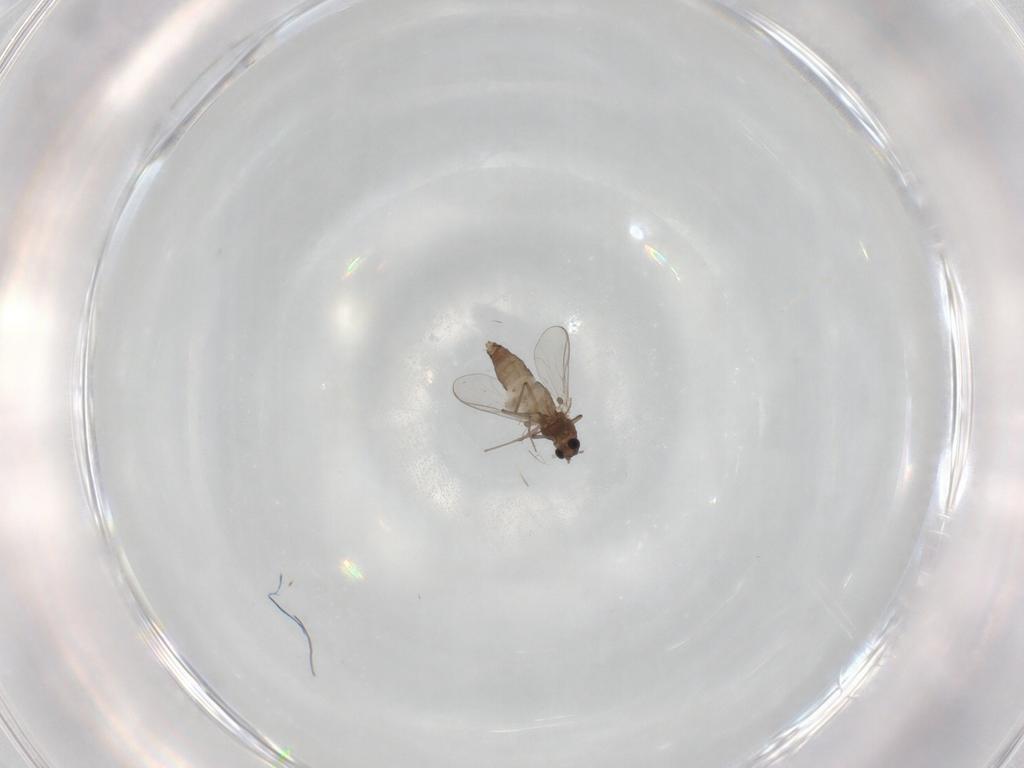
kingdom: Animalia
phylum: Arthropoda
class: Insecta
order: Diptera
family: Chironomidae
